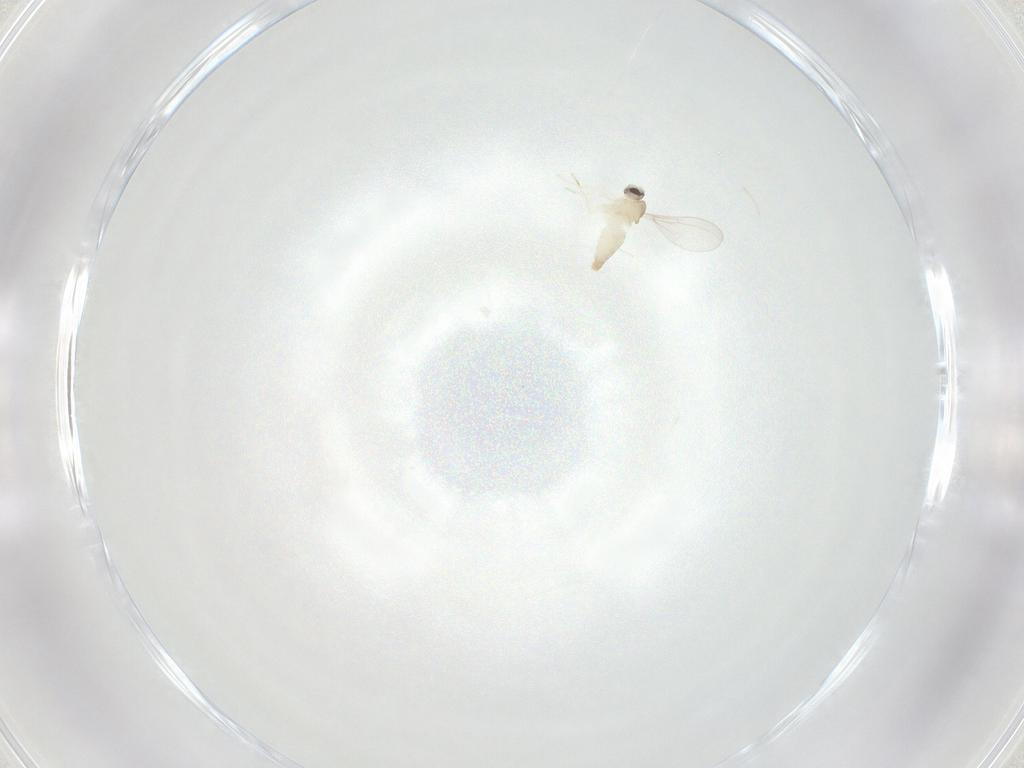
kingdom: Animalia
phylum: Arthropoda
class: Insecta
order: Diptera
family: Cecidomyiidae
